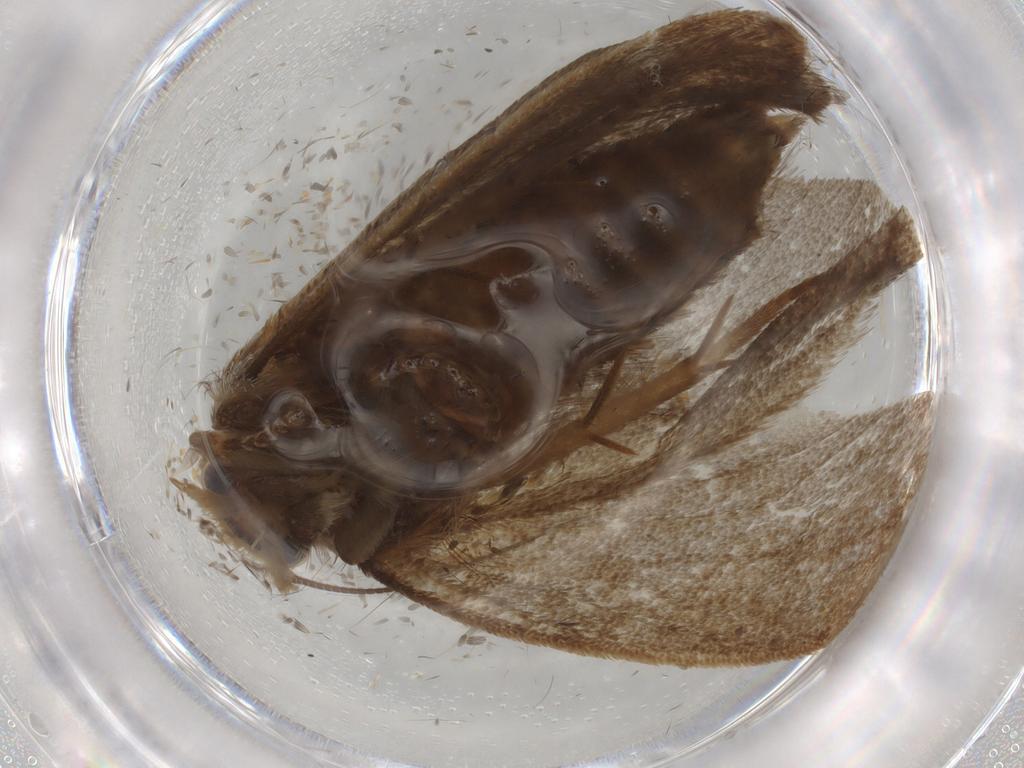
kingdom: Animalia
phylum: Arthropoda
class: Insecta
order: Lepidoptera
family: Tineidae
